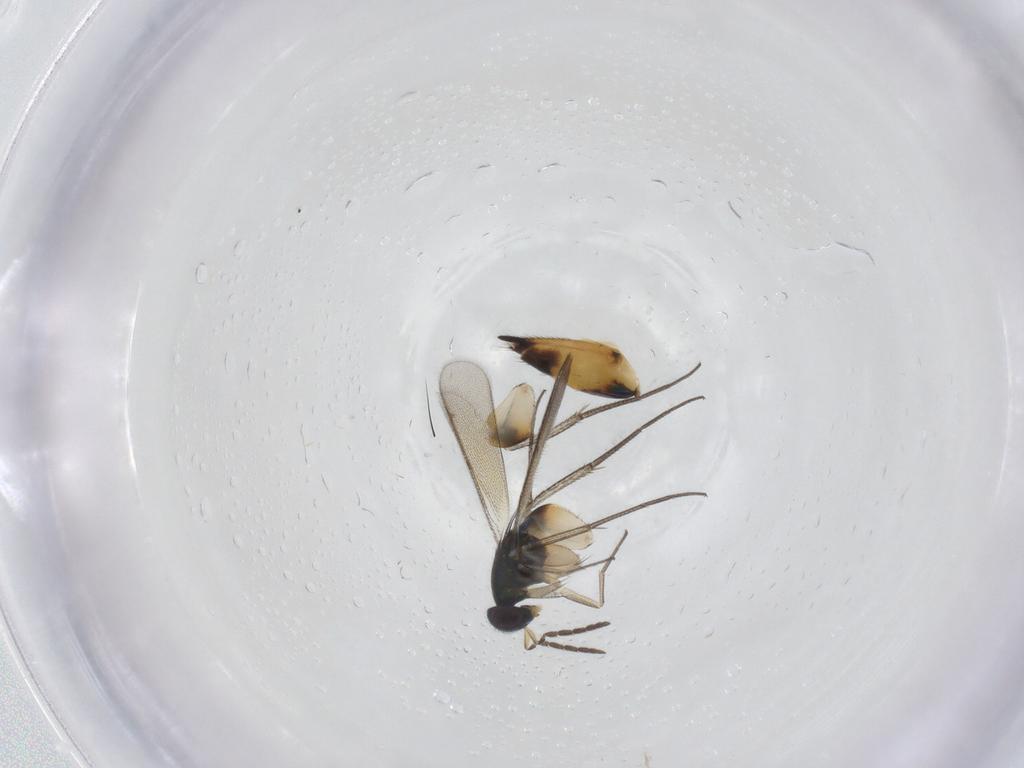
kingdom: Animalia
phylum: Arthropoda
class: Insecta
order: Hymenoptera
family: Eulophidae
